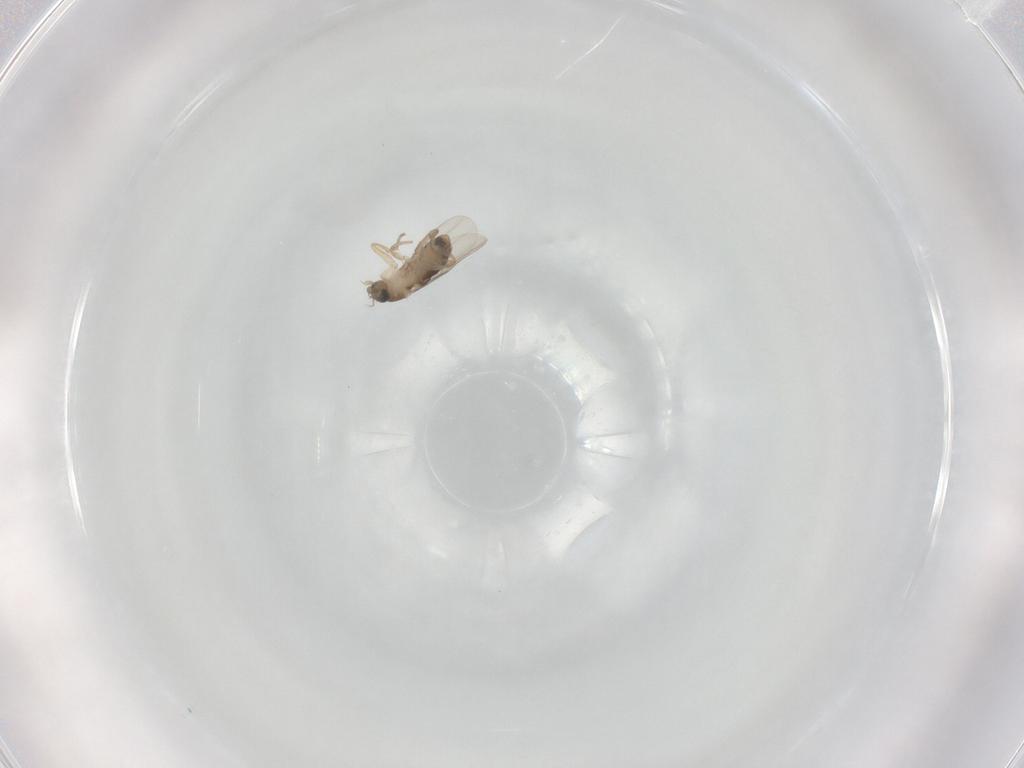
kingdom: Animalia
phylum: Arthropoda
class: Insecta
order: Diptera
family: Phoridae
